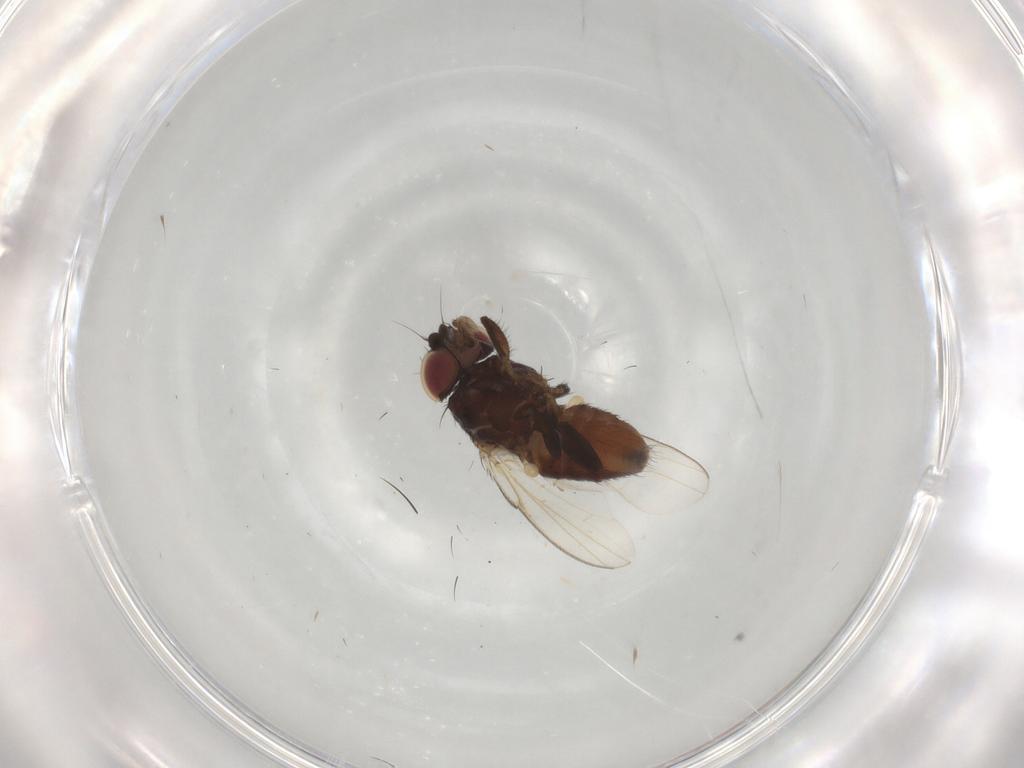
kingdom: Animalia
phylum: Arthropoda
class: Insecta
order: Diptera
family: Milichiidae
